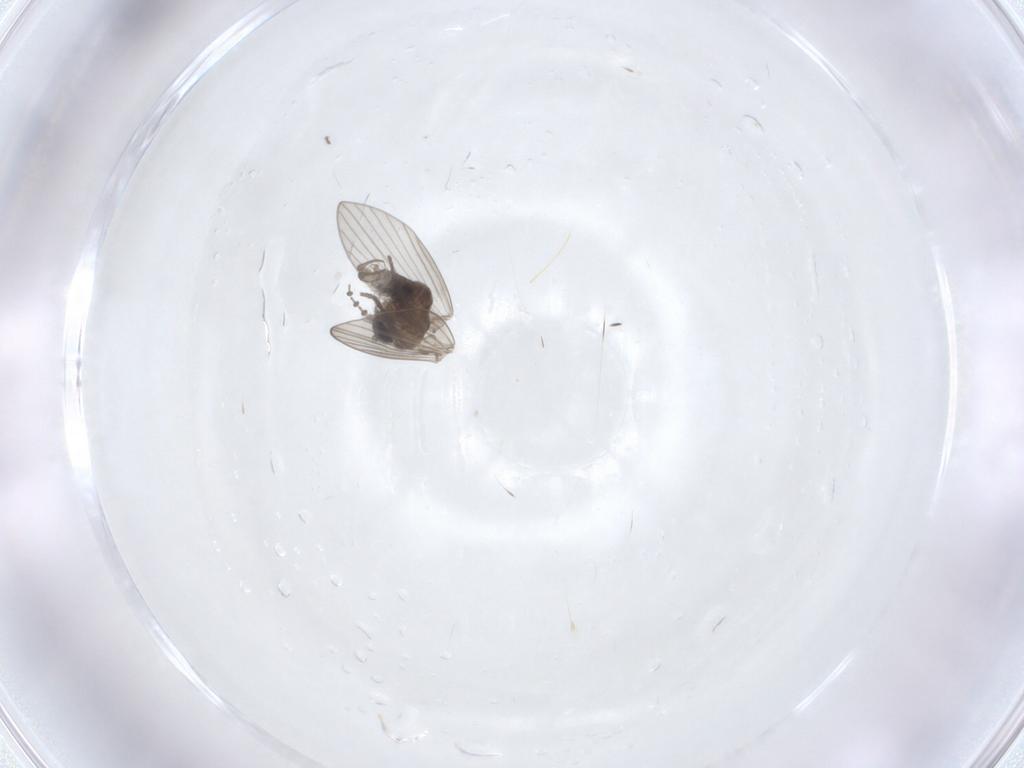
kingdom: Animalia
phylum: Arthropoda
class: Insecta
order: Diptera
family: Psychodidae
